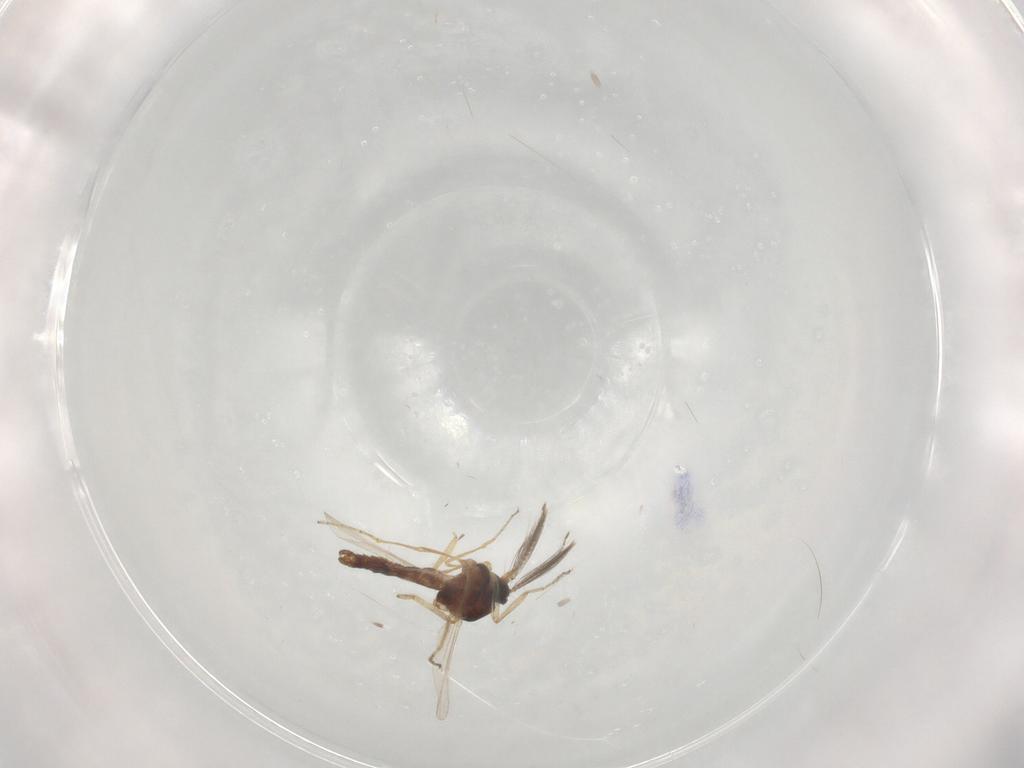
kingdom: Animalia
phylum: Arthropoda
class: Insecta
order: Diptera
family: Ceratopogonidae
